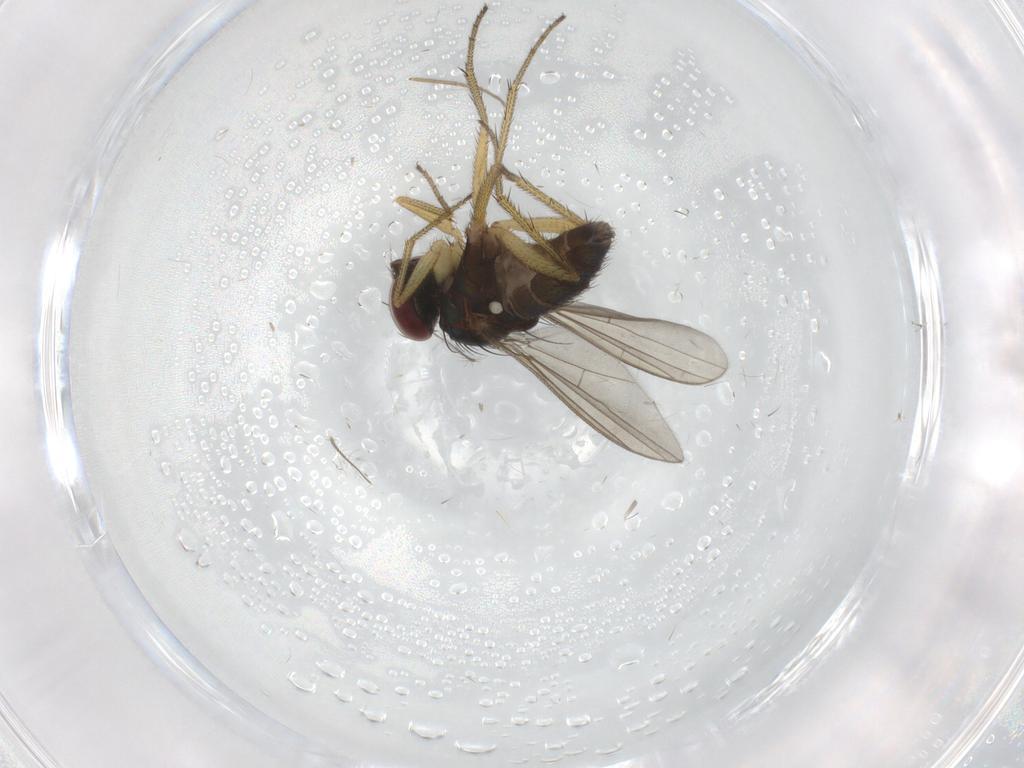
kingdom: Animalia
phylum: Arthropoda
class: Insecta
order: Diptera
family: Dolichopodidae
